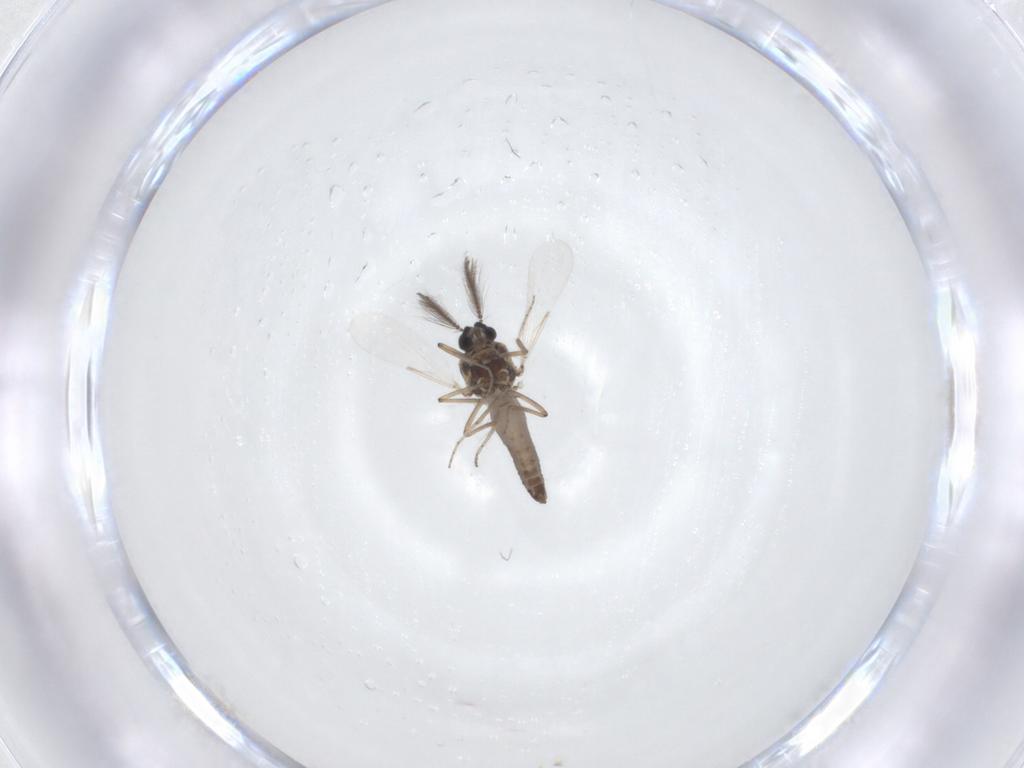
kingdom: Animalia
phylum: Arthropoda
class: Insecta
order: Diptera
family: Ceratopogonidae
